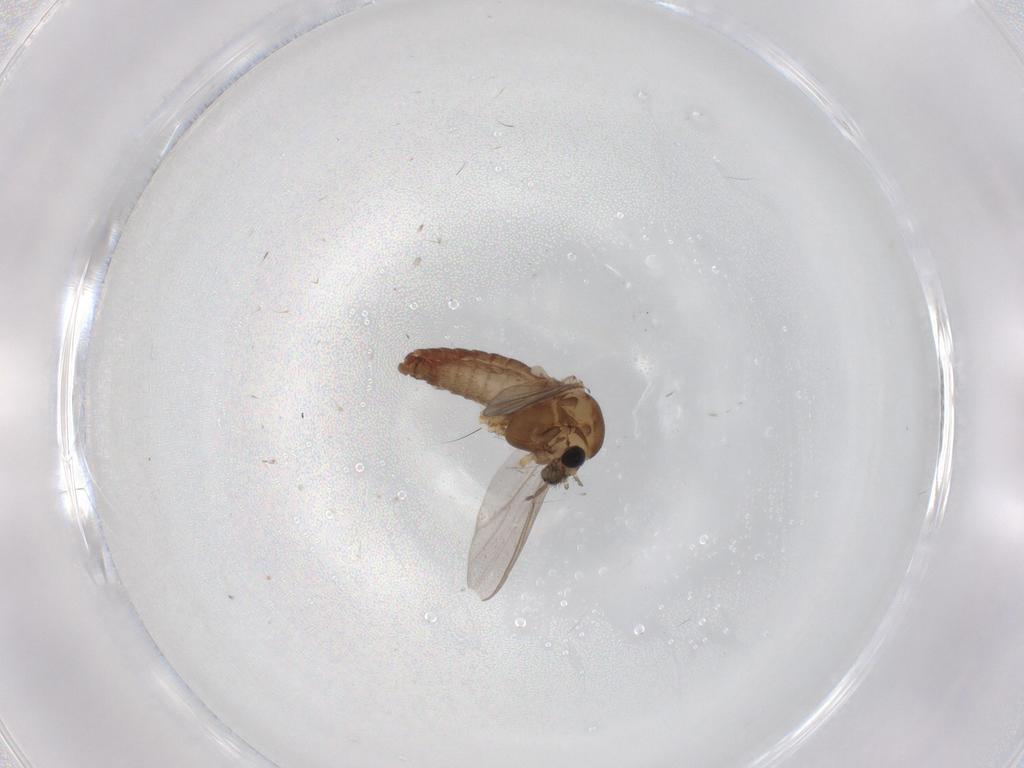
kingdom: Animalia
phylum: Arthropoda
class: Insecta
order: Diptera
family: Chironomidae
